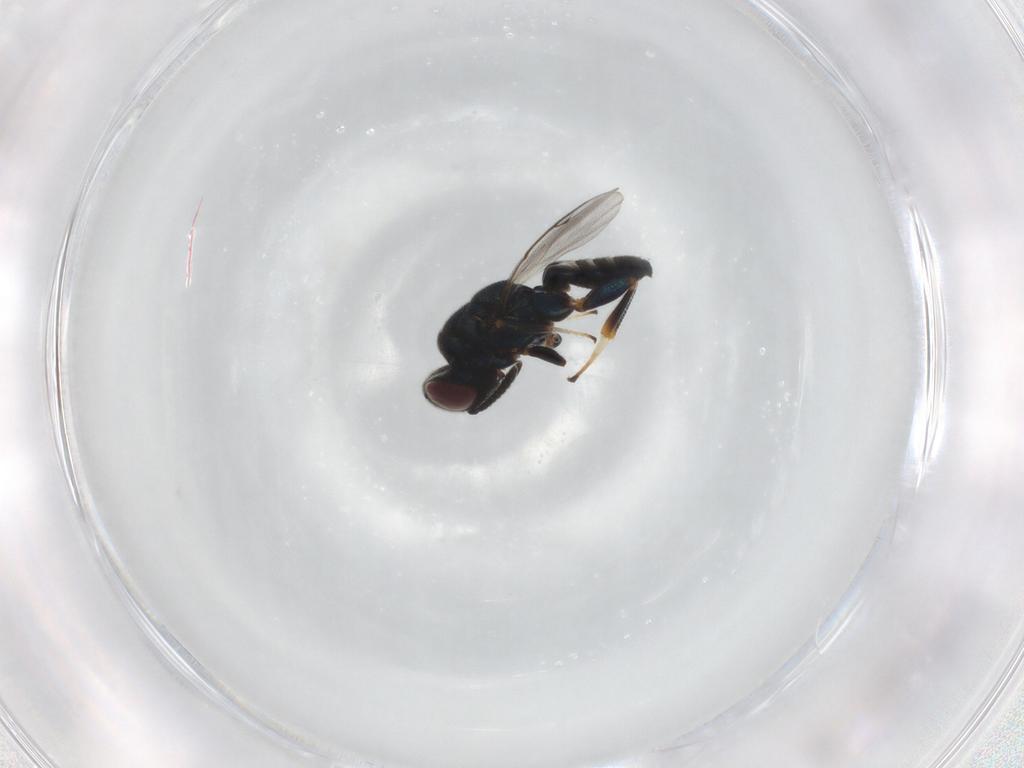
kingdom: Animalia
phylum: Arthropoda
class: Insecta
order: Hymenoptera
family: Pteromalidae
